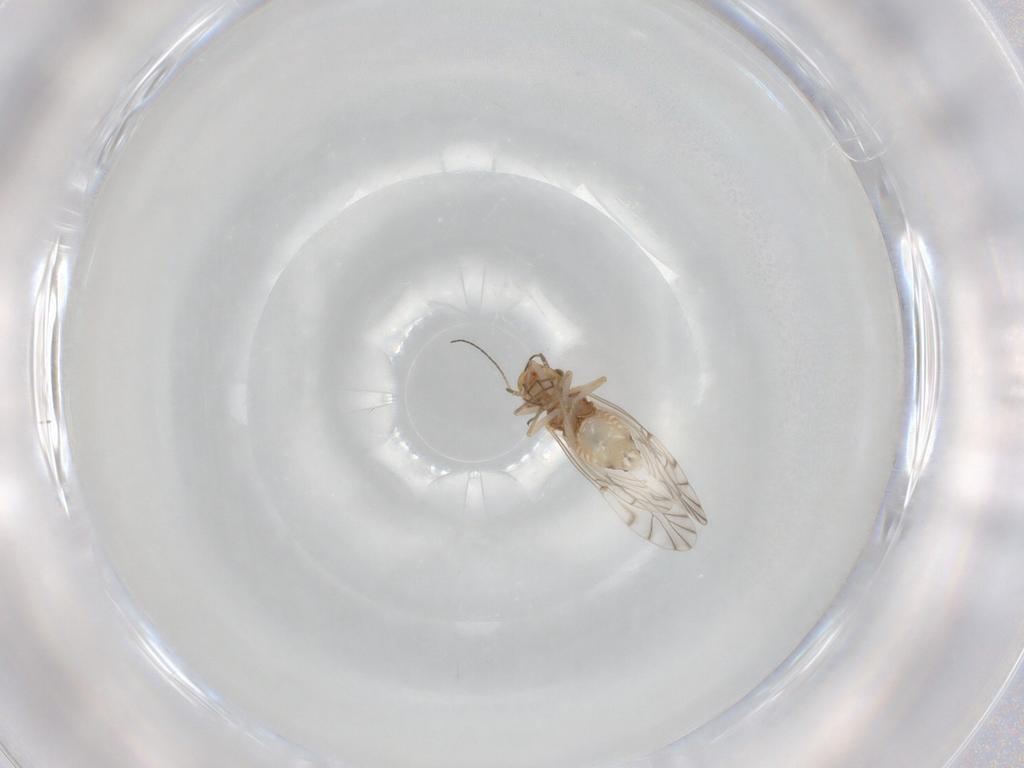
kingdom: Animalia
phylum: Arthropoda
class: Insecta
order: Psocodea
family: Lachesillidae
